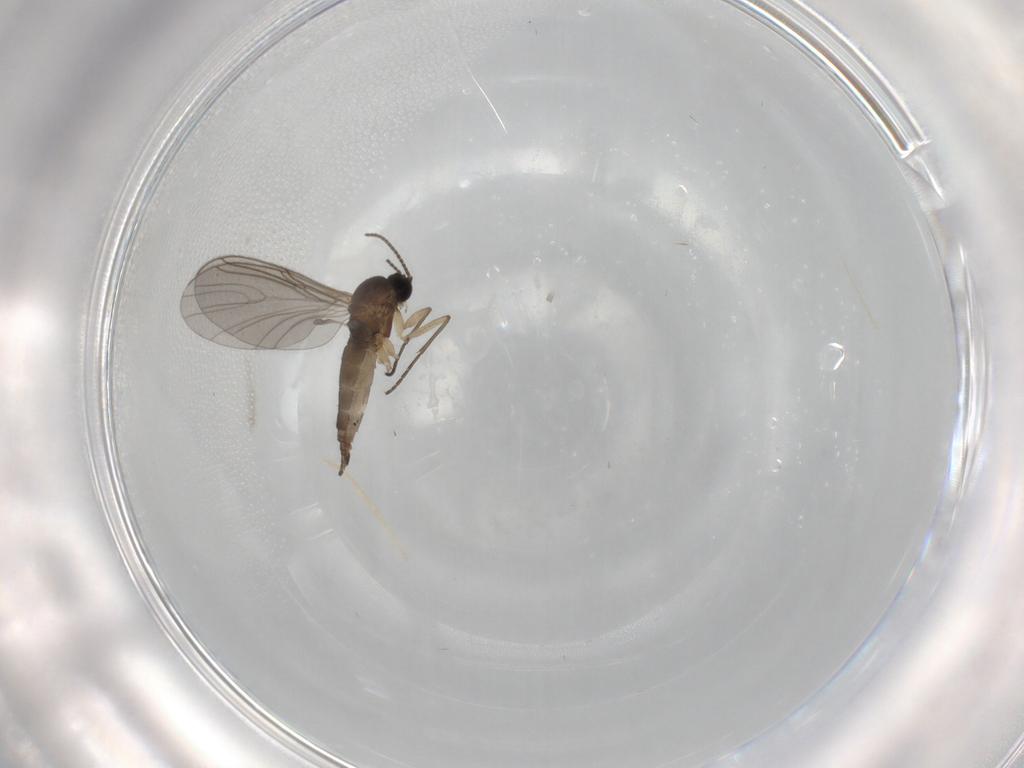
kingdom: Animalia
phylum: Arthropoda
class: Insecta
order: Diptera
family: Sciaridae
